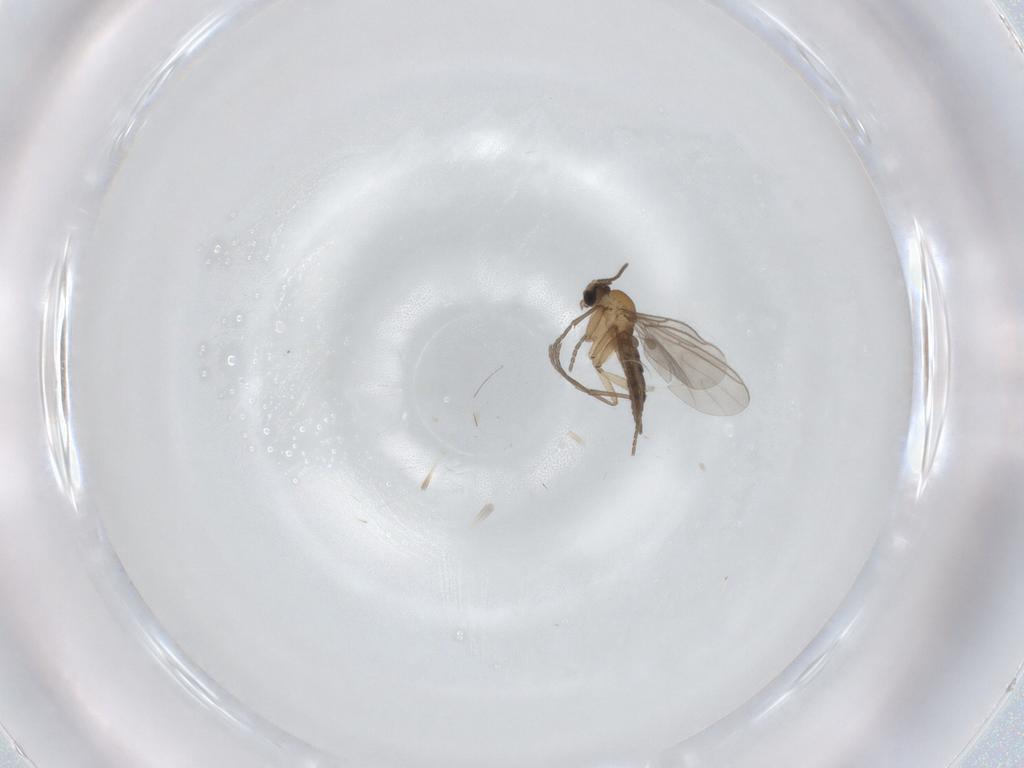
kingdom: Animalia
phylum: Arthropoda
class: Insecta
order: Diptera
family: Sciaridae
